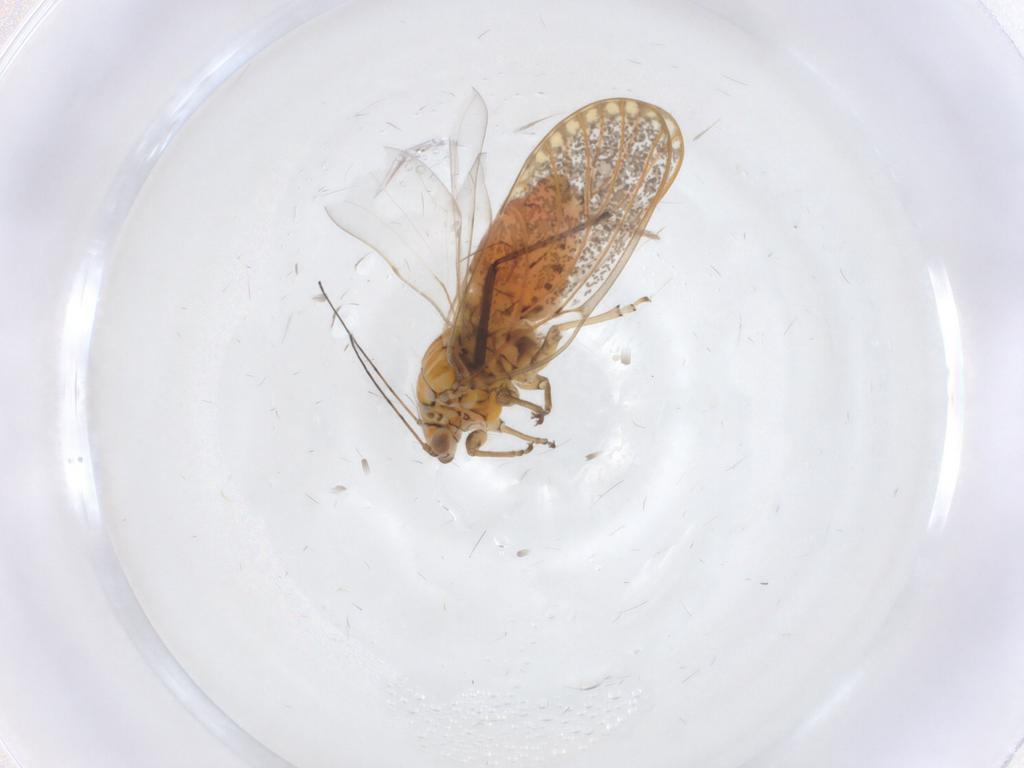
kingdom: Animalia
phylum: Arthropoda
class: Insecta
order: Hemiptera
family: Psyllidae
